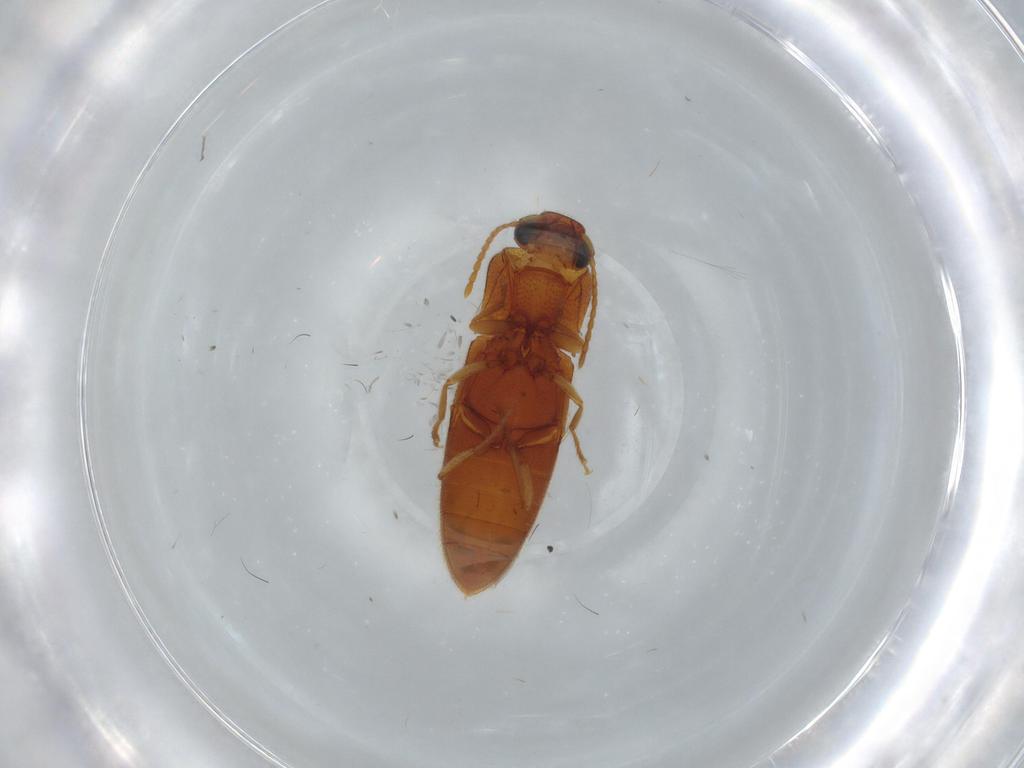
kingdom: Animalia
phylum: Arthropoda
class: Insecta
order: Coleoptera
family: Elateridae
